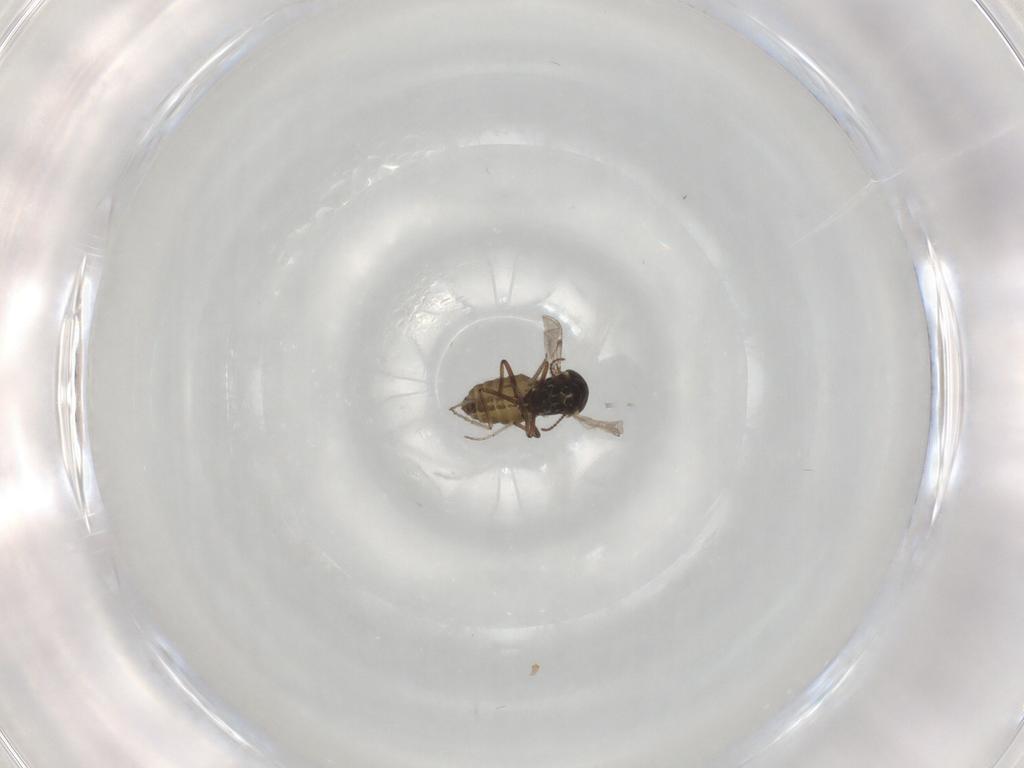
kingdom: Animalia
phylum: Arthropoda
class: Insecta
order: Diptera
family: Ceratopogonidae
